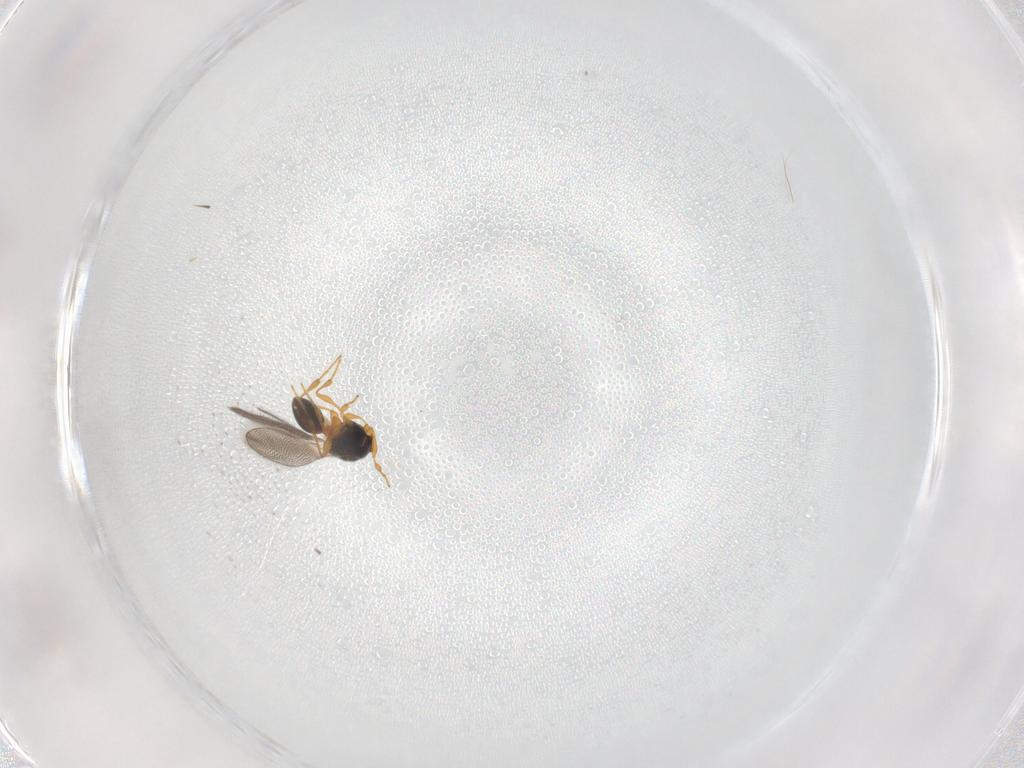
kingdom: Animalia
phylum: Arthropoda
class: Insecta
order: Hymenoptera
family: Platygastridae
